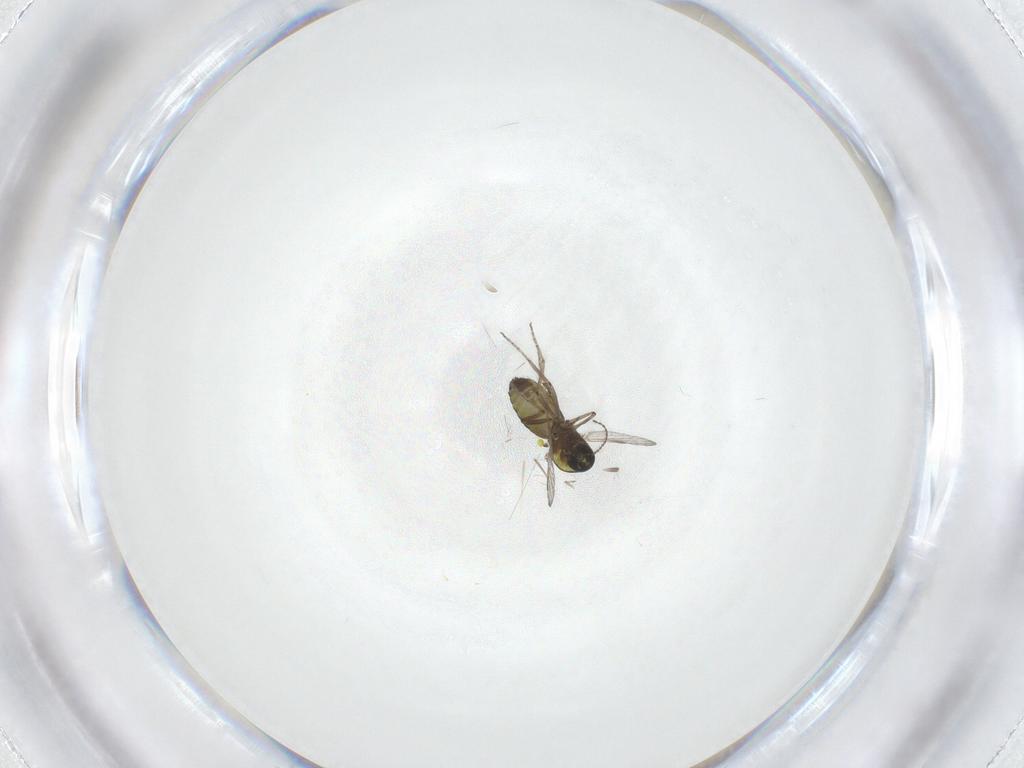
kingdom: Animalia
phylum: Arthropoda
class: Insecta
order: Diptera
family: Cecidomyiidae
